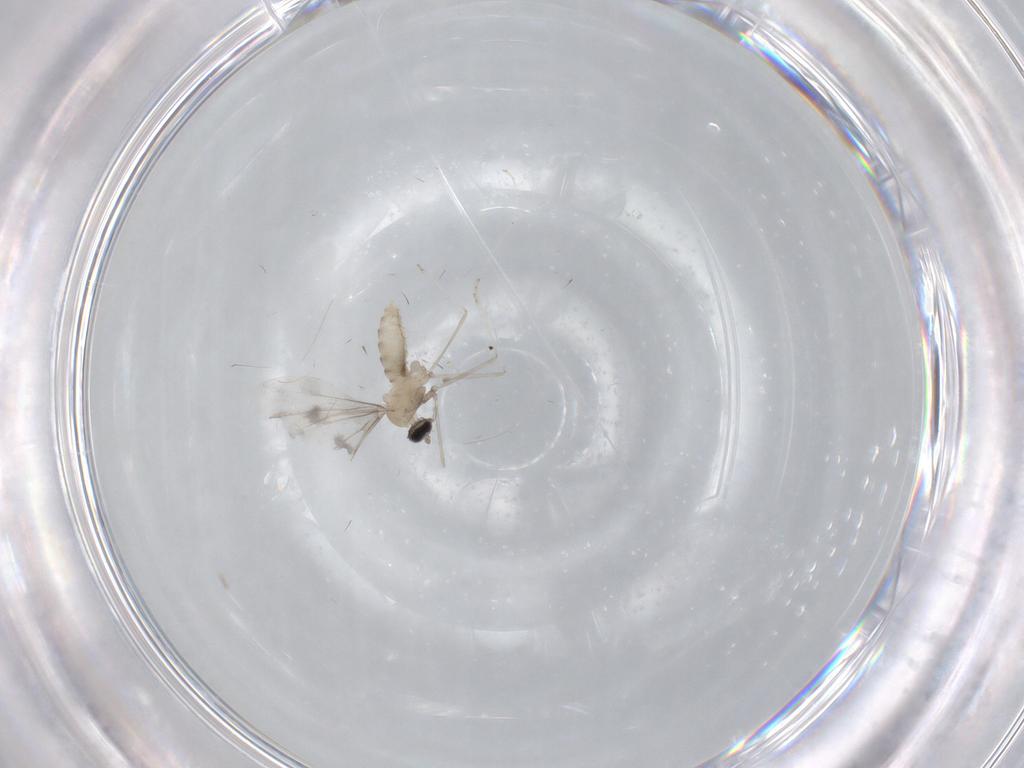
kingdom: Animalia
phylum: Arthropoda
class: Insecta
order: Diptera
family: Cecidomyiidae
